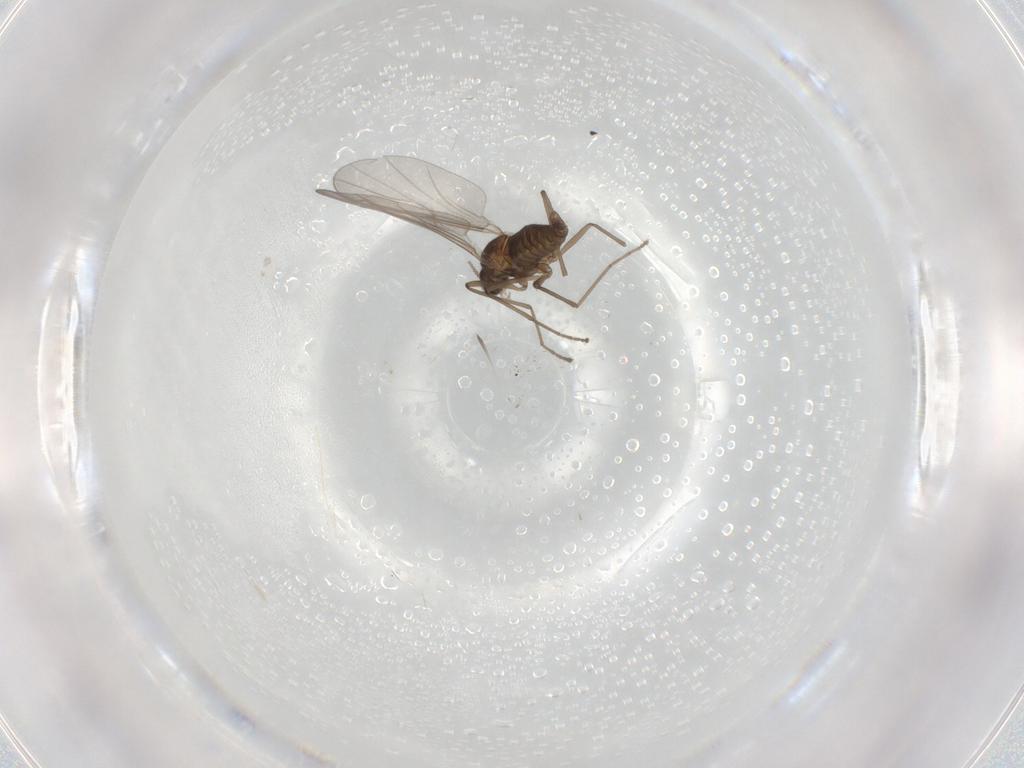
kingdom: Animalia
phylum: Arthropoda
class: Insecta
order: Diptera
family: Cecidomyiidae
